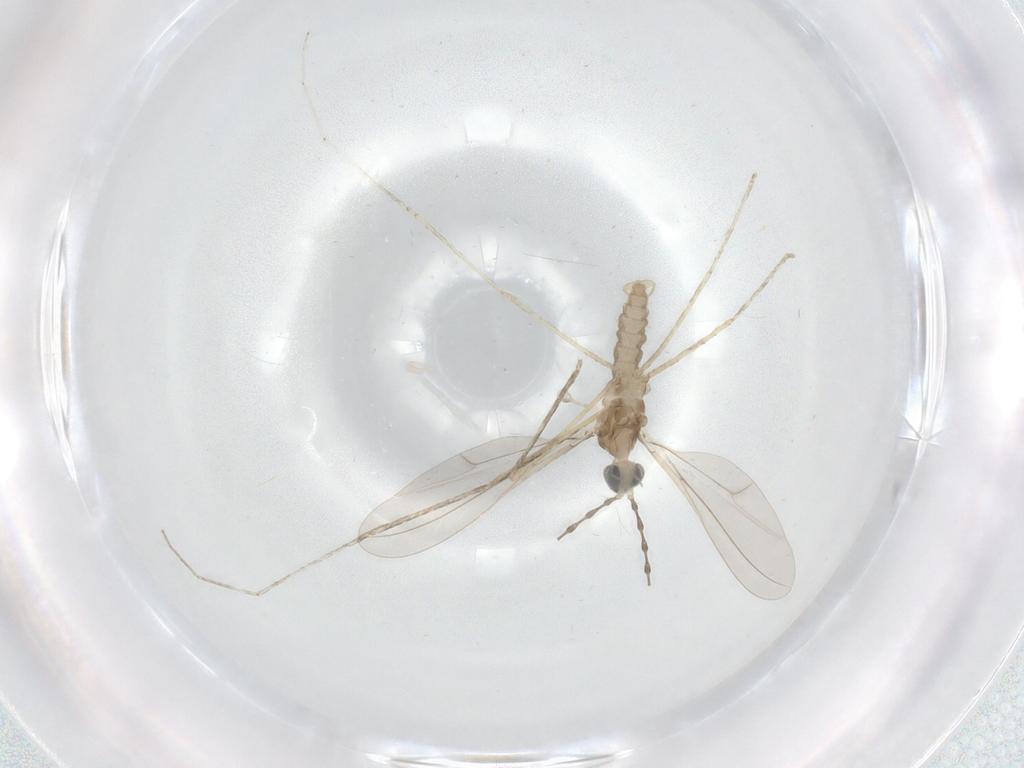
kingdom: Animalia
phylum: Arthropoda
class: Insecta
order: Diptera
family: Cecidomyiidae
